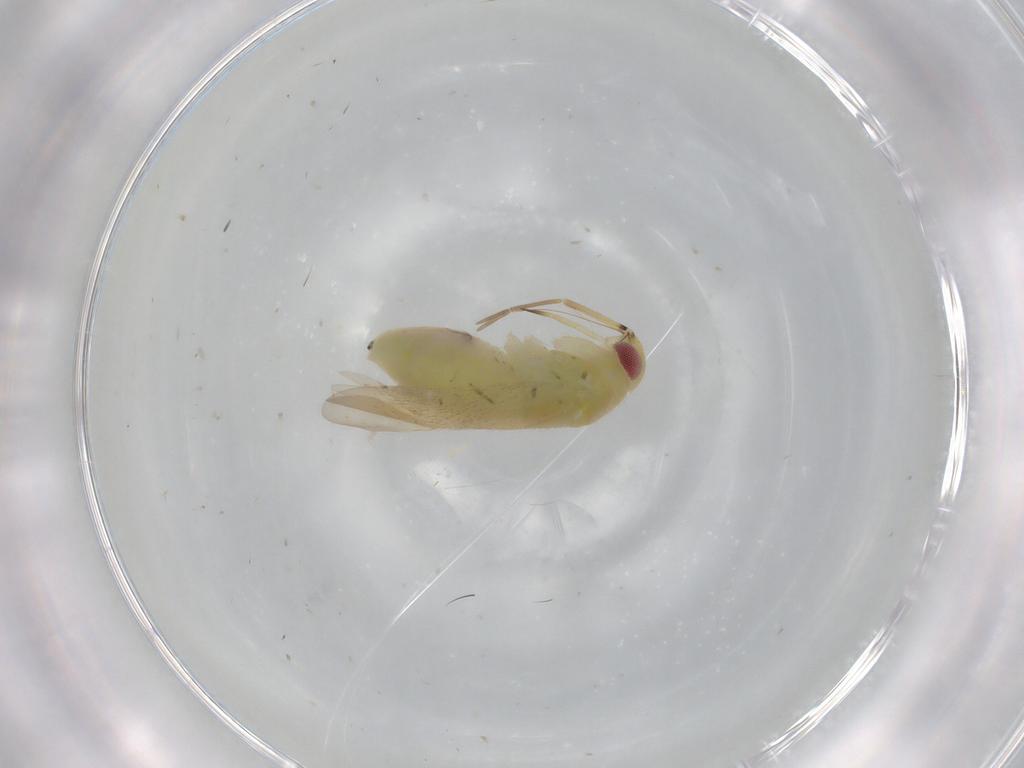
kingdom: Animalia
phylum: Arthropoda
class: Insecta
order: Hemiptera
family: Miridae
